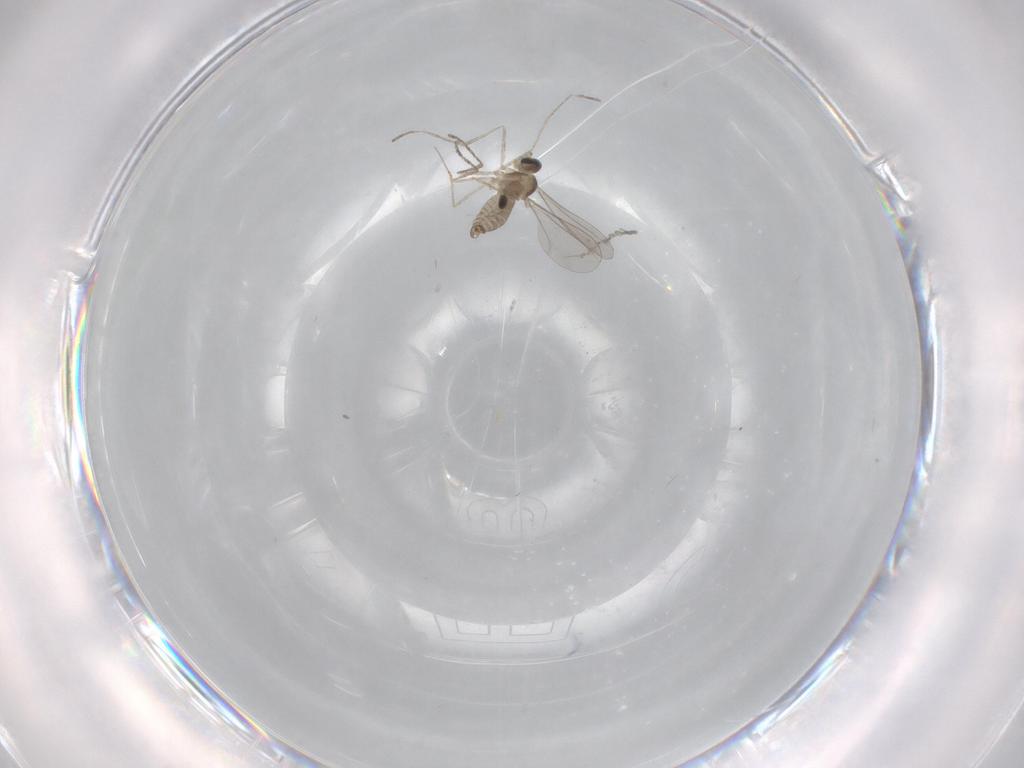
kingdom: Animalia
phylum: Arthropoda
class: Insecta
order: Diptera
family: Chironomidae
